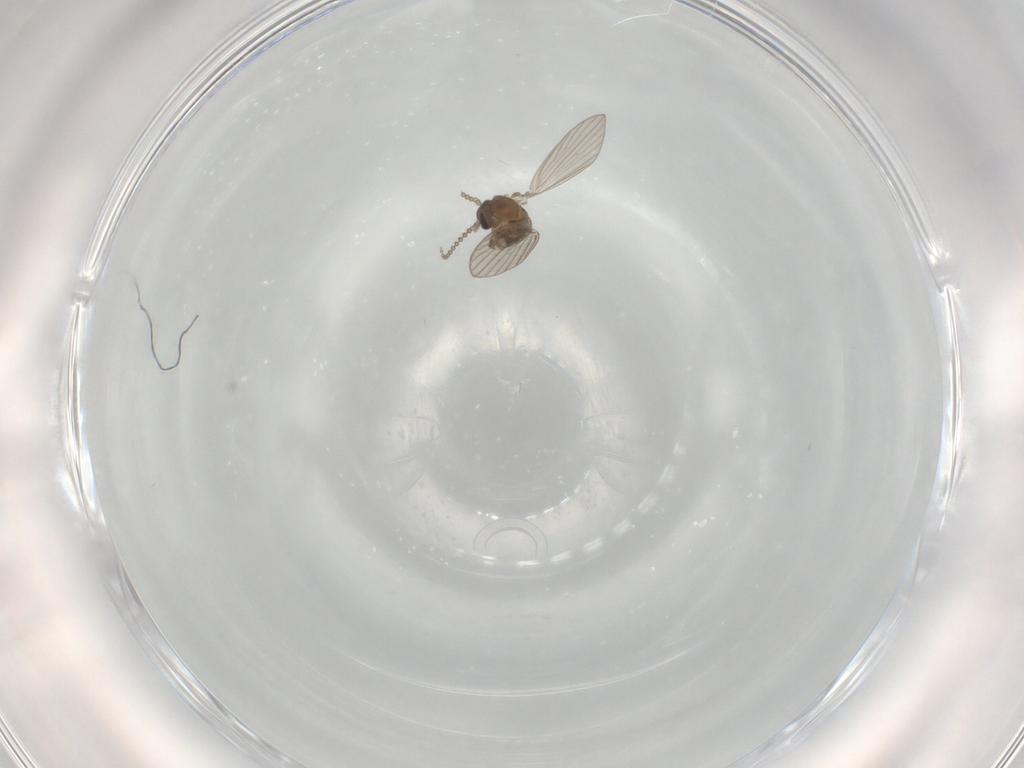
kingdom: Animalia
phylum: Arthropoda
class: Insecta
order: Diptera
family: Psychodidae
